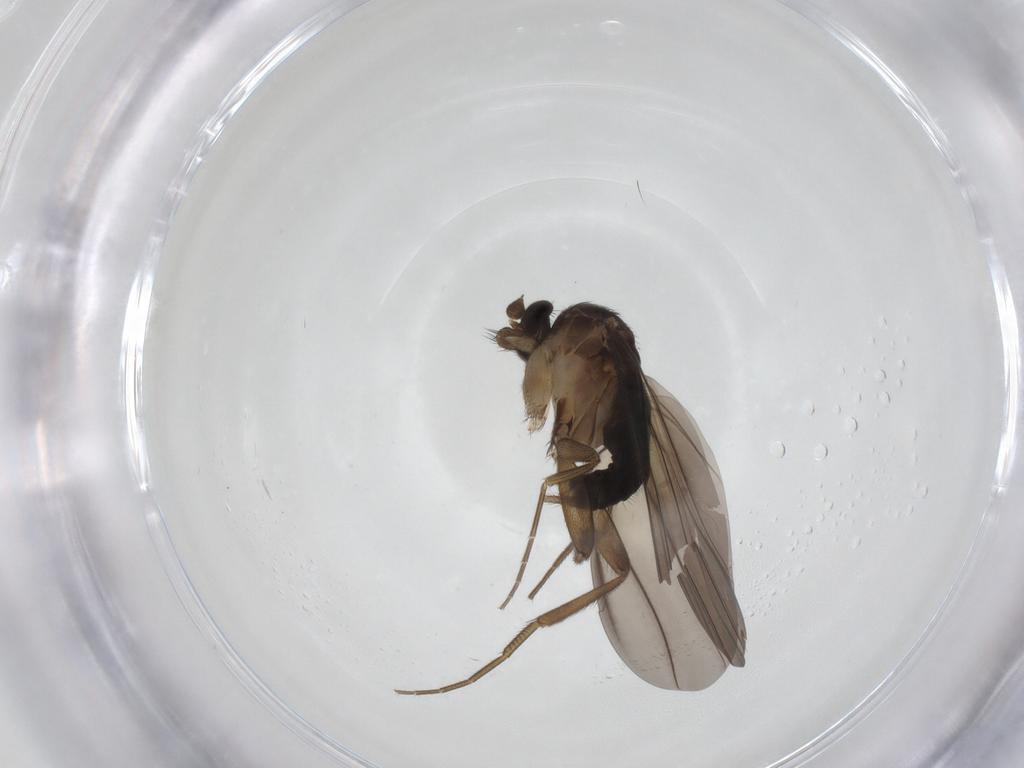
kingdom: Animalia
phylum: Arthropoda
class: Insecta
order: Diptera
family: Phoridae
